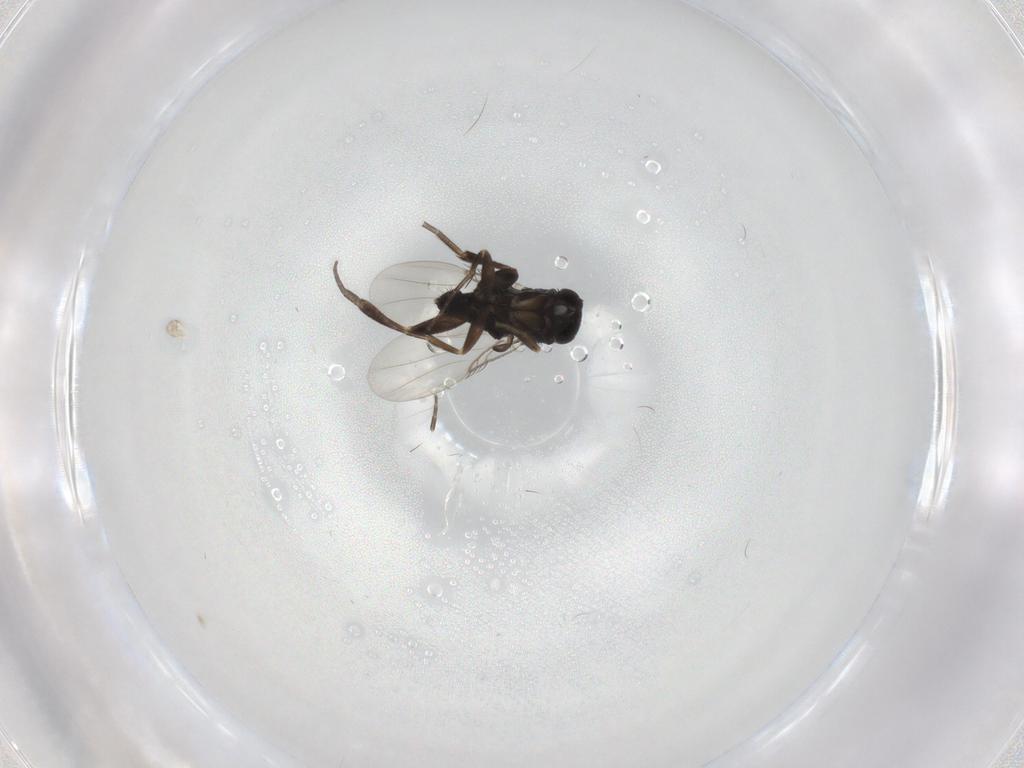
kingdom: Animalia
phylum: Arthropoda
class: Insecta
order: Diptera
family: Phoridae
